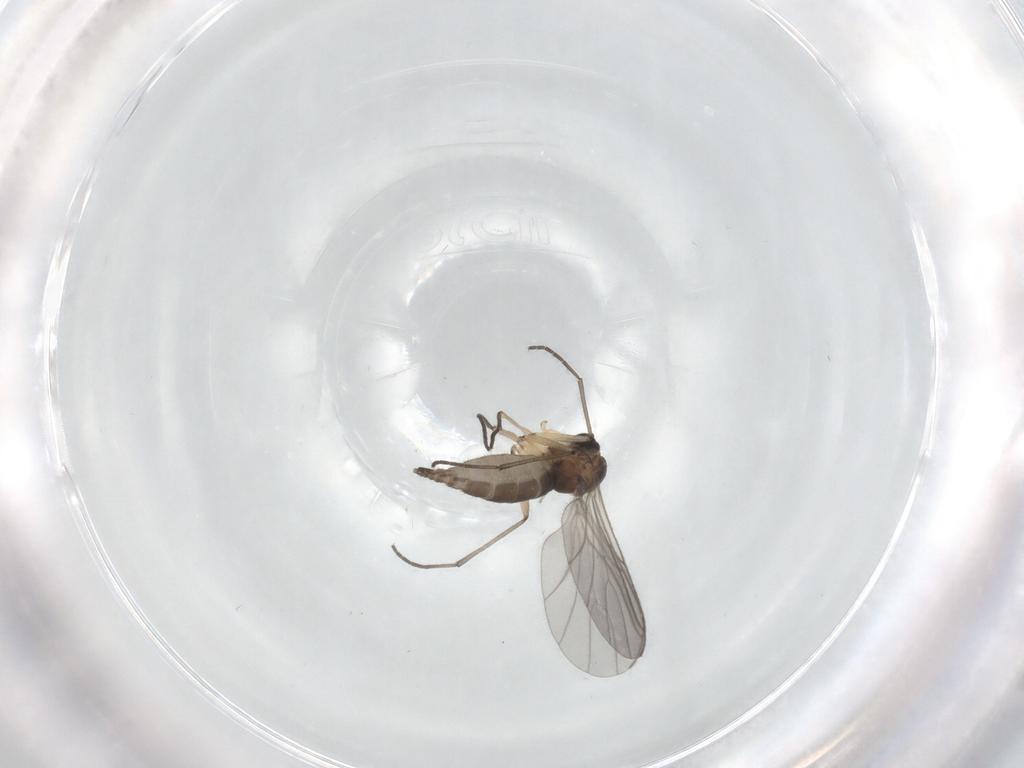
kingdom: Animalia
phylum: Arthropoda
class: Insecta
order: Diptera
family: Sciaridae
